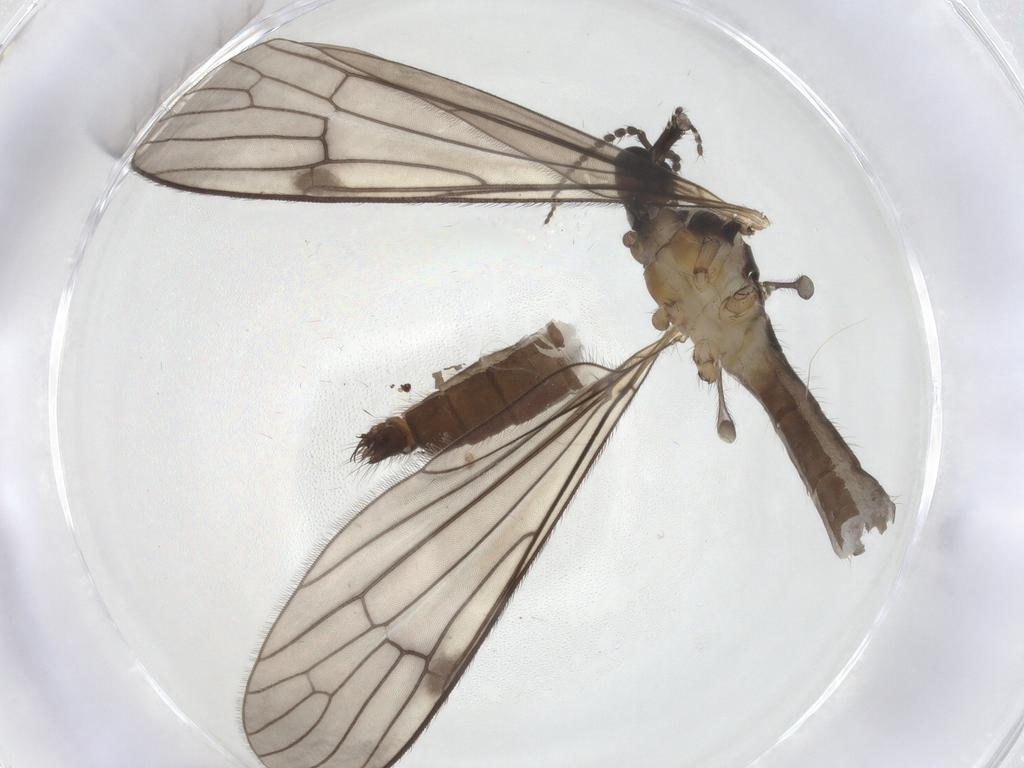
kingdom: Animalia
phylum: Arthropoda
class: Insecta
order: Diptera
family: Limoniidae
